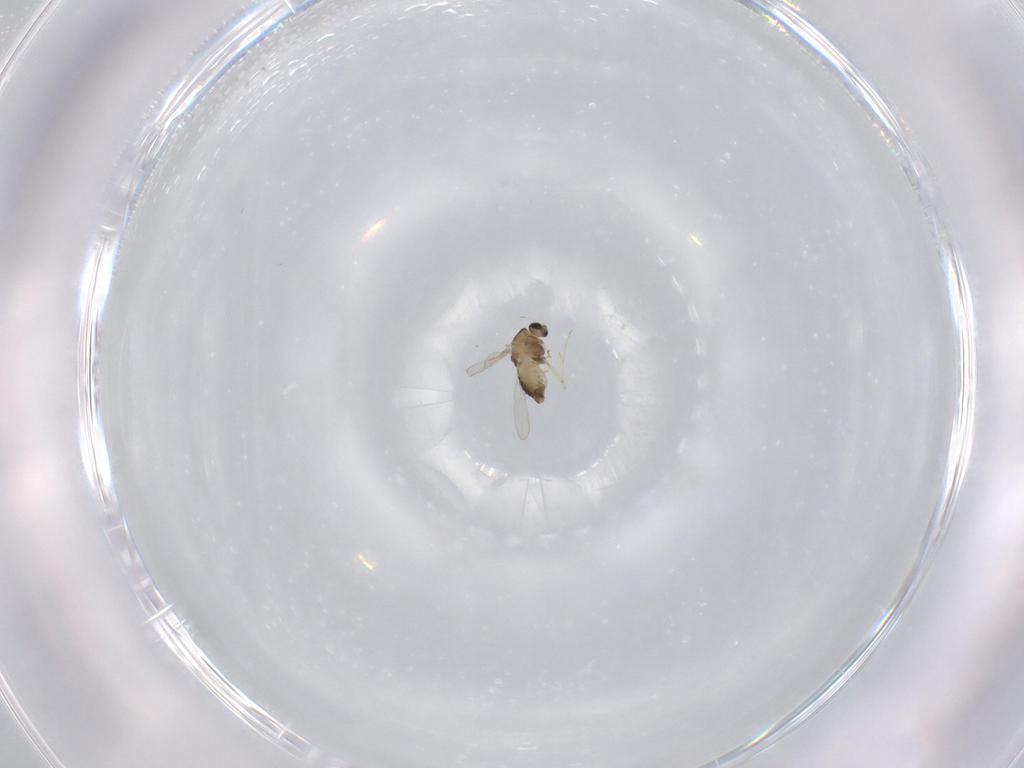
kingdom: Animalia
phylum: Arthropoda
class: Insecta
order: Diptera
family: Chironomidae
